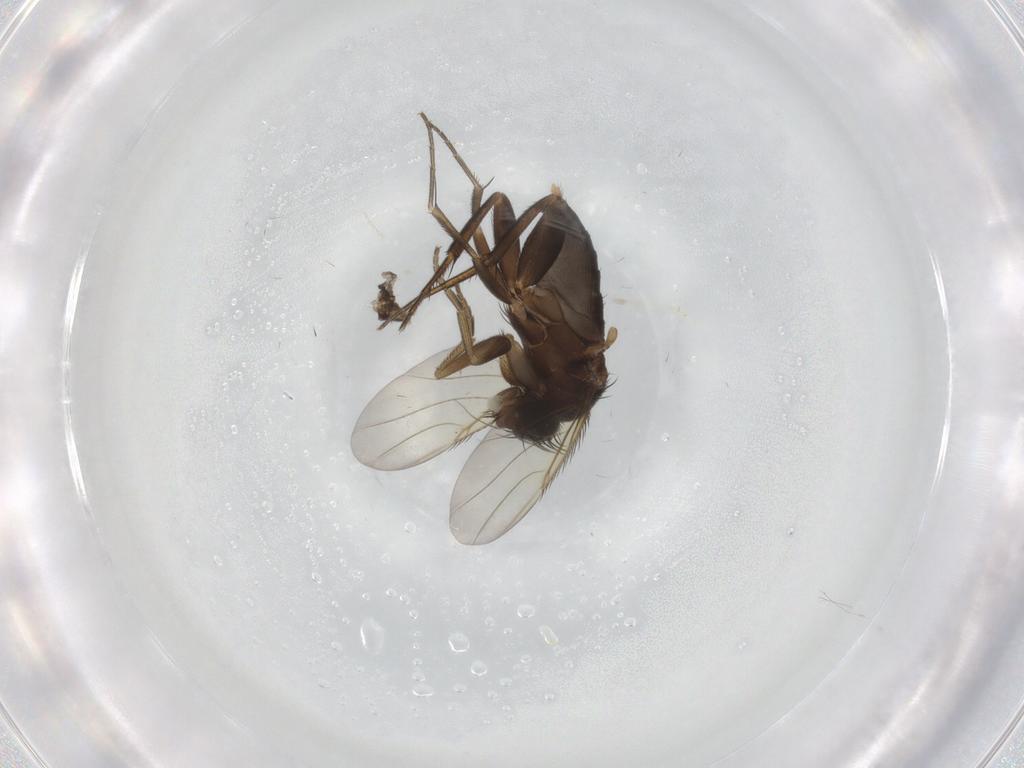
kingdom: Animalia
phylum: Arthropoda
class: Insecta
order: Diptera
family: Phoridae
